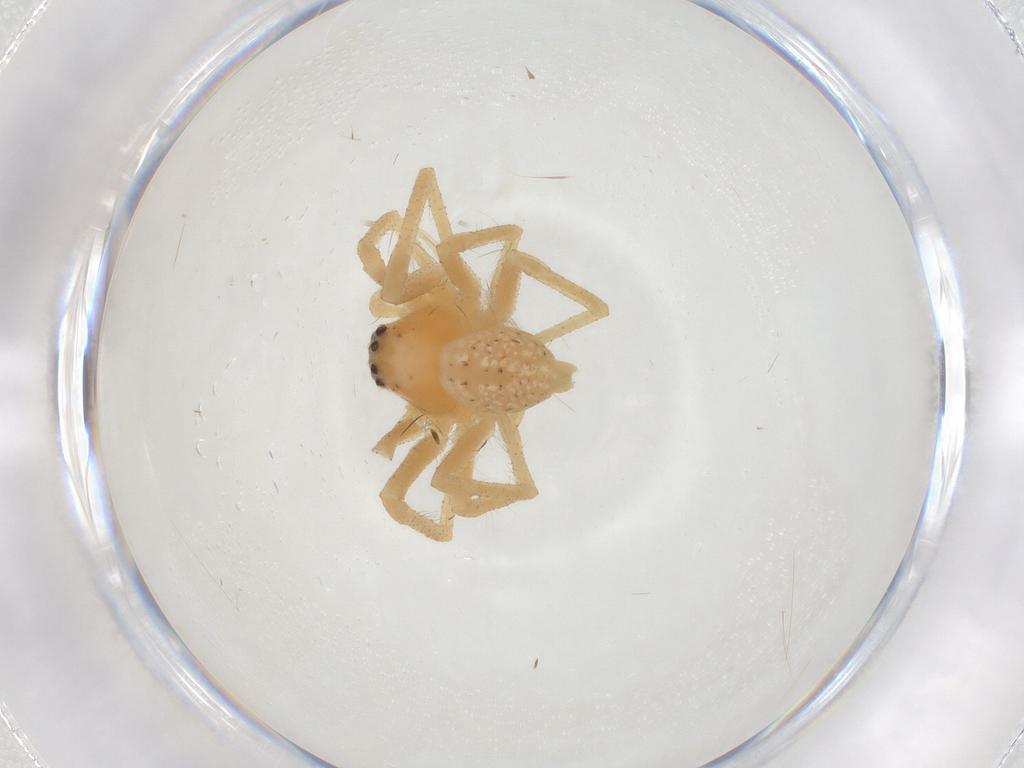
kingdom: Animalia
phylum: Arthropoda
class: Arachnida
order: Araneae
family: Sparassidae
